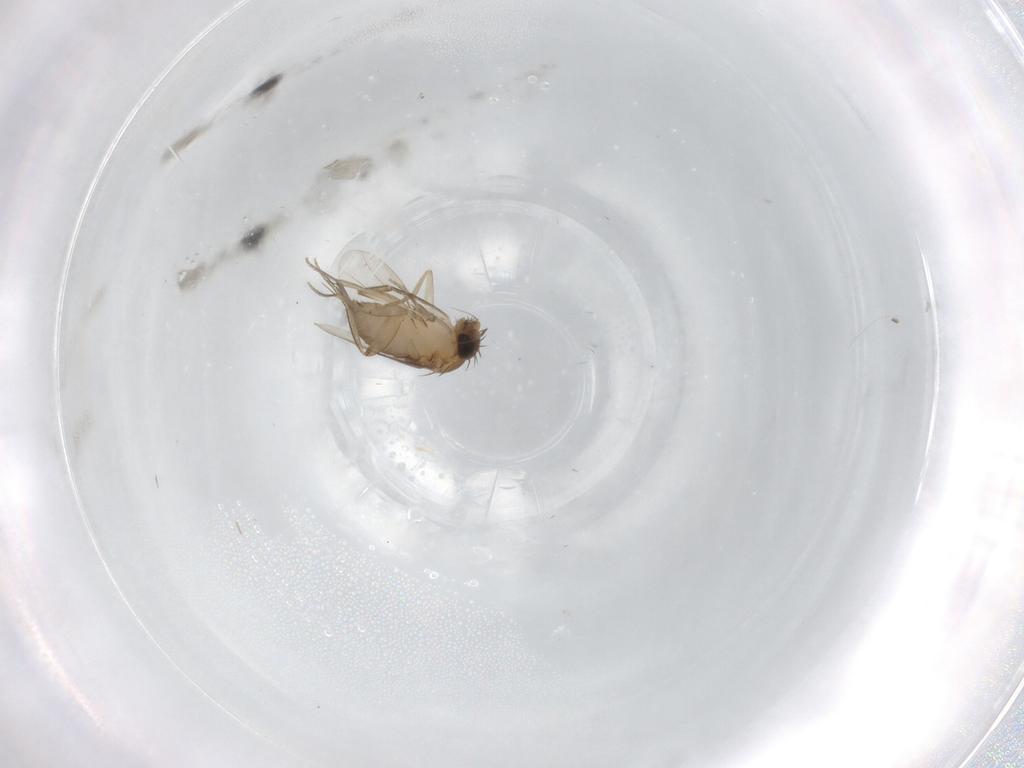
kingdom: Animalia
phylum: Arthropoda
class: Insecta
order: Diptera
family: Phoridae
